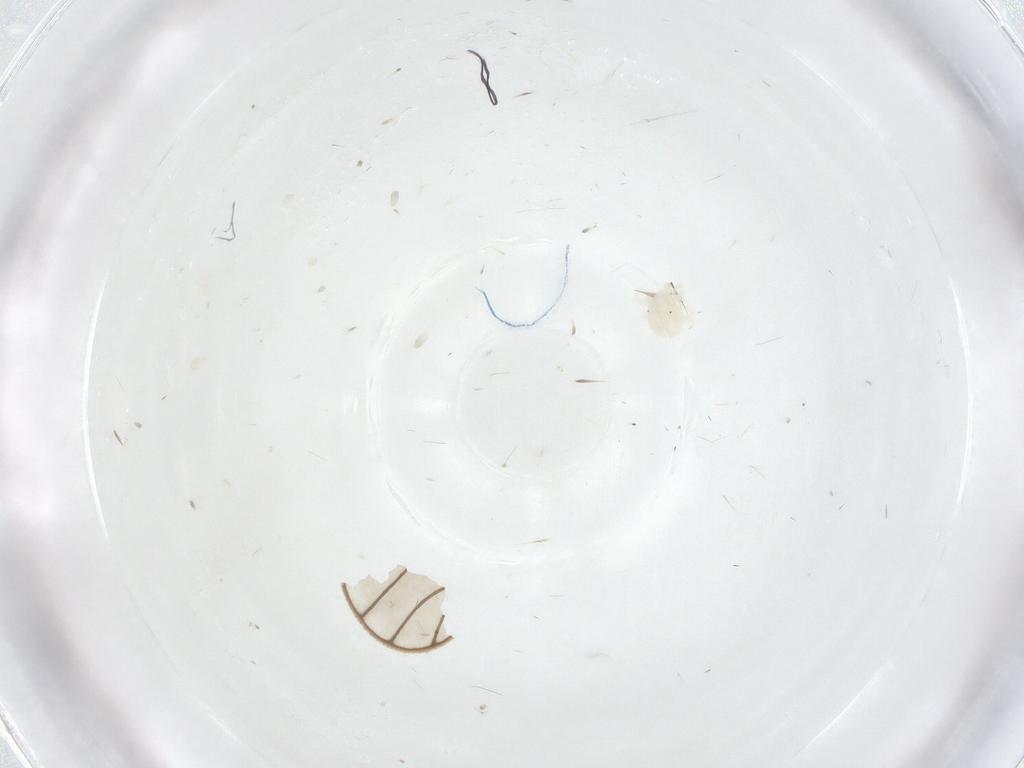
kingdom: Animalia
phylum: Arthropoda
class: Arachnida
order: Trombidiformes
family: Anystidae
